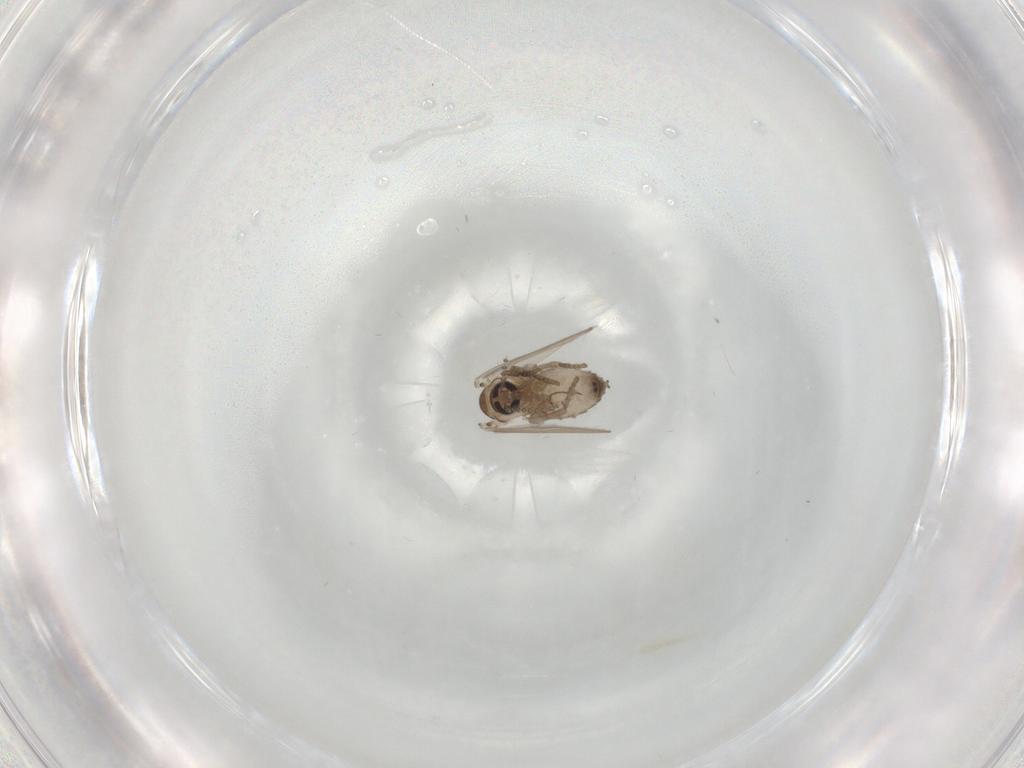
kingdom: Animalia
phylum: Arthropoda
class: Insecta
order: Diptera
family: Psychodidae
